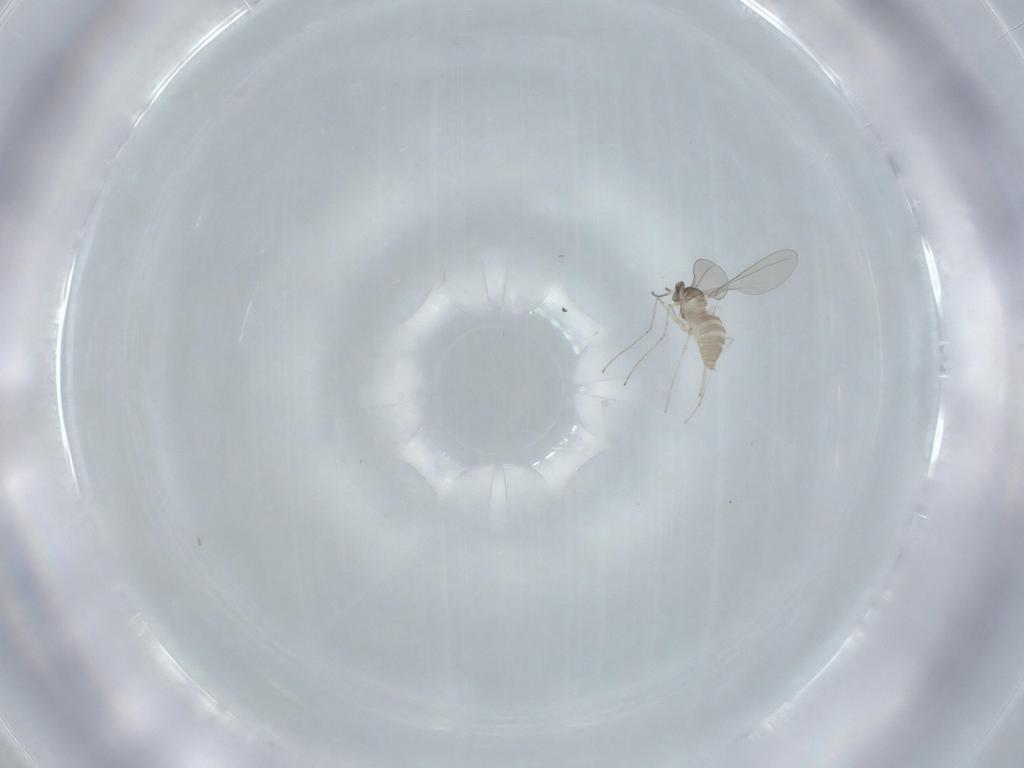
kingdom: Animalia
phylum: Arthropoda
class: Insecta
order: Diptera
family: Cecidomyiidae
